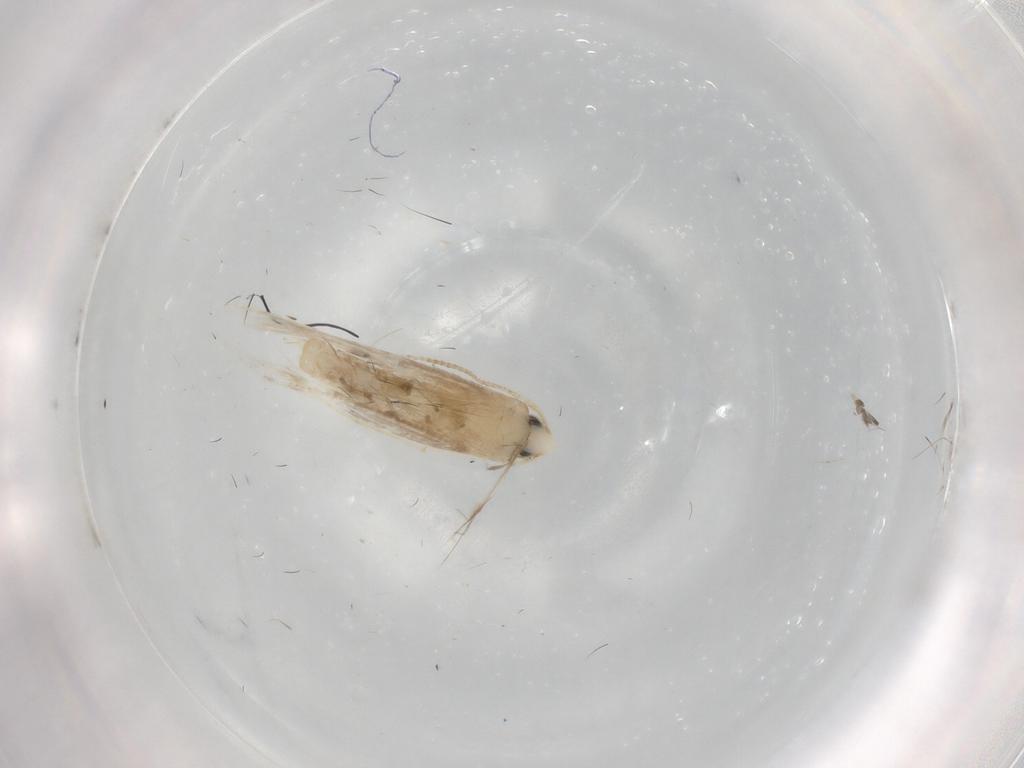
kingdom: Animalia
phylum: Arthropoda
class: Insecta
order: Lepidoptera
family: Tineidae
